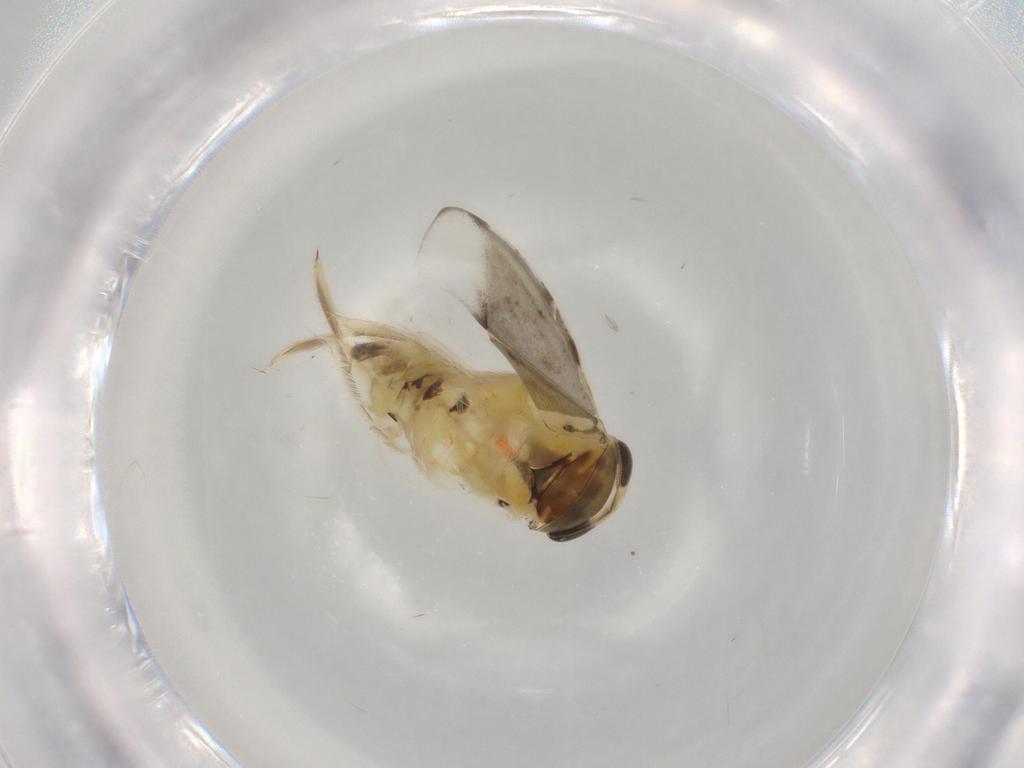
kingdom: Animalia
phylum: Arthropoda
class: Insecta
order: Hemiptera
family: Corixidae
